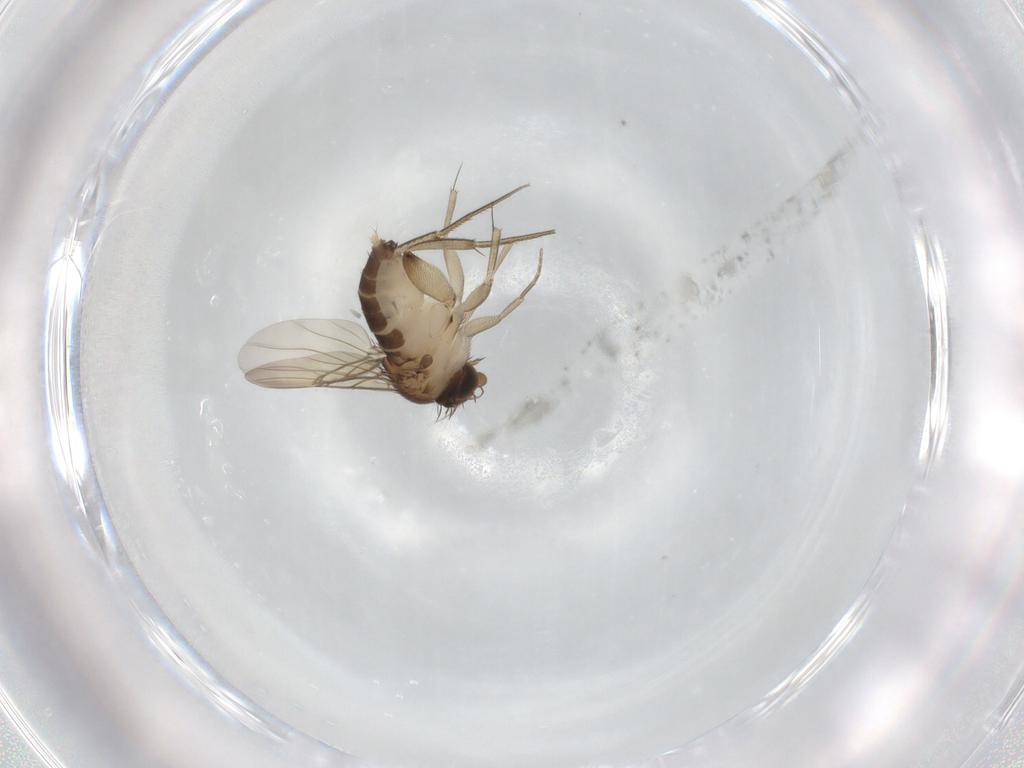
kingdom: Animalia
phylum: Arthropoda
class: Insecta
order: Diptera
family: Phoridae
